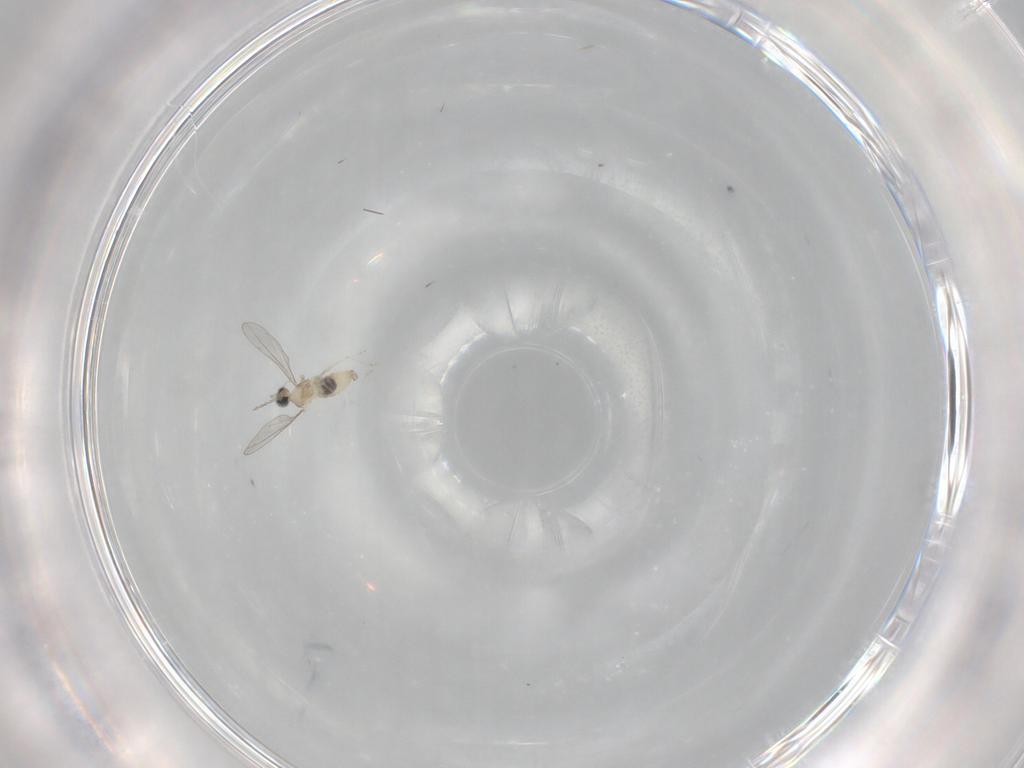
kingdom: Animalia
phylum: Arthropoda
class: Insecta
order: Diptera
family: Cecidomyiidae
